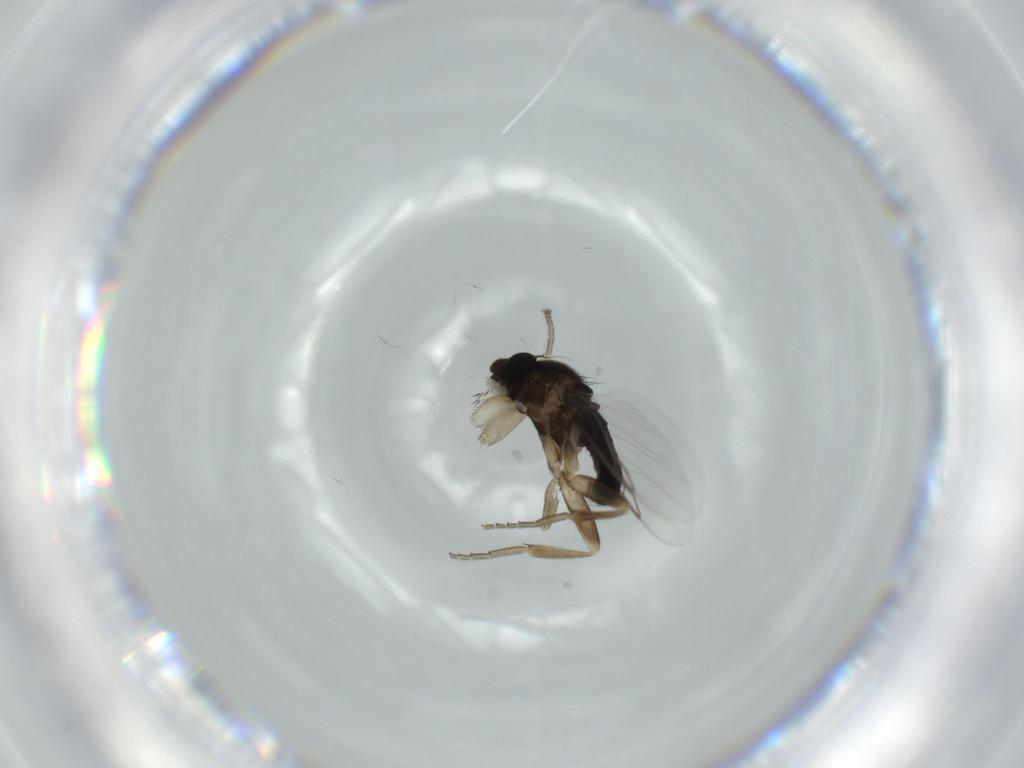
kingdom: Animalia
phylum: Arthropoda
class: Insecta
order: Diptera
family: Phoridae
